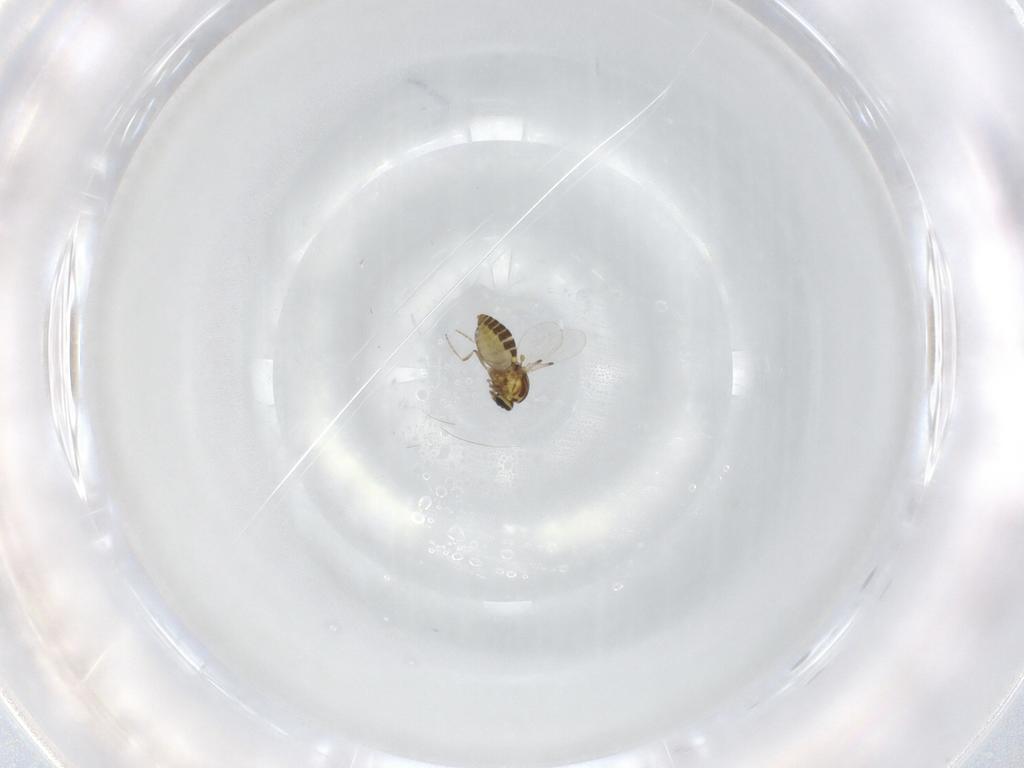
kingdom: Animalia
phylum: Arthropoda
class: Insecta
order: Diptera
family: Ceratopogonidae
